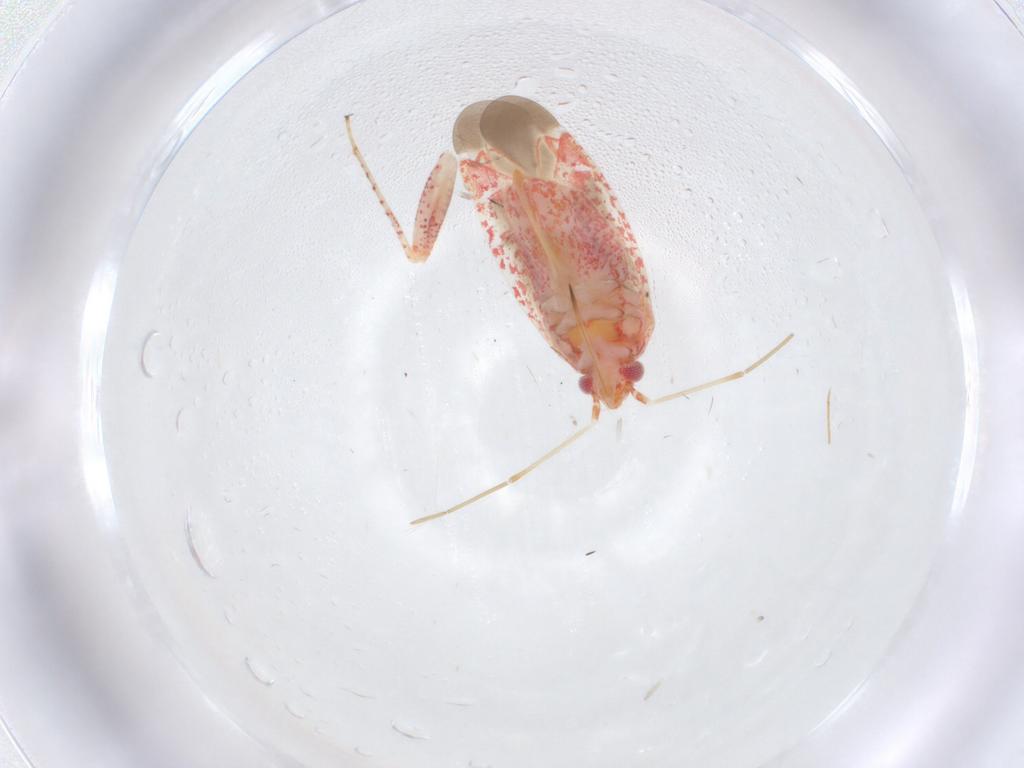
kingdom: Animalia
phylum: Arthropoda
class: Insecta
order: Hemiptera
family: Miridae
